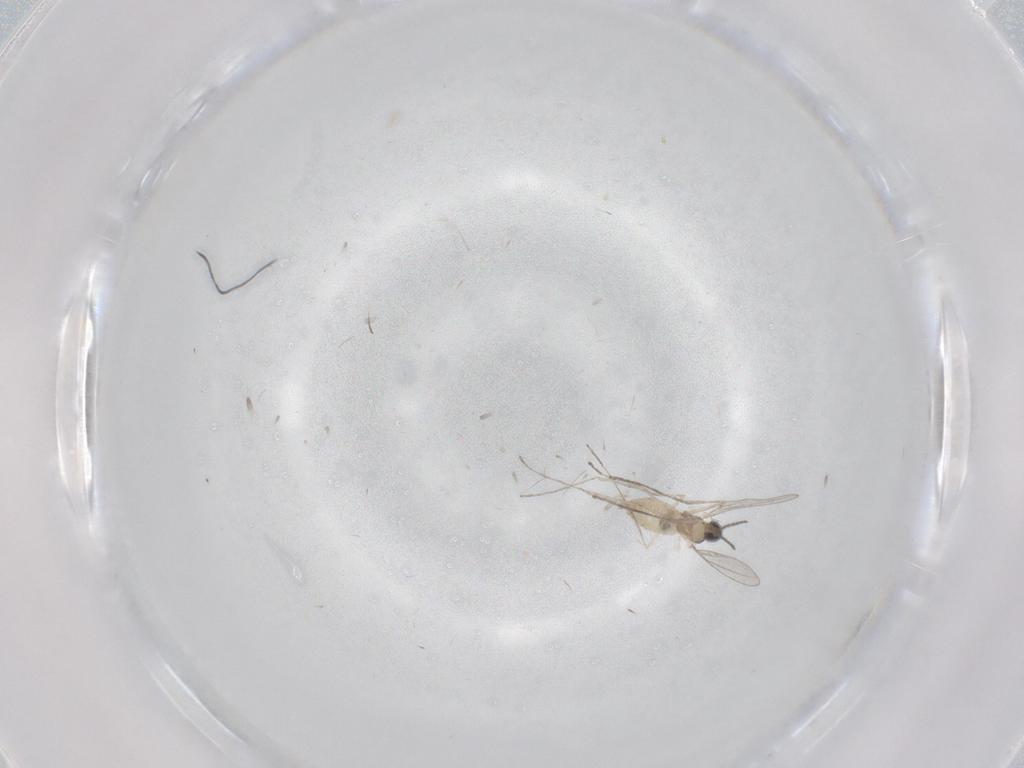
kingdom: Animalia
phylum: Arthropoda
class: Insecta
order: Diptera
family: Cecidomyiidae
